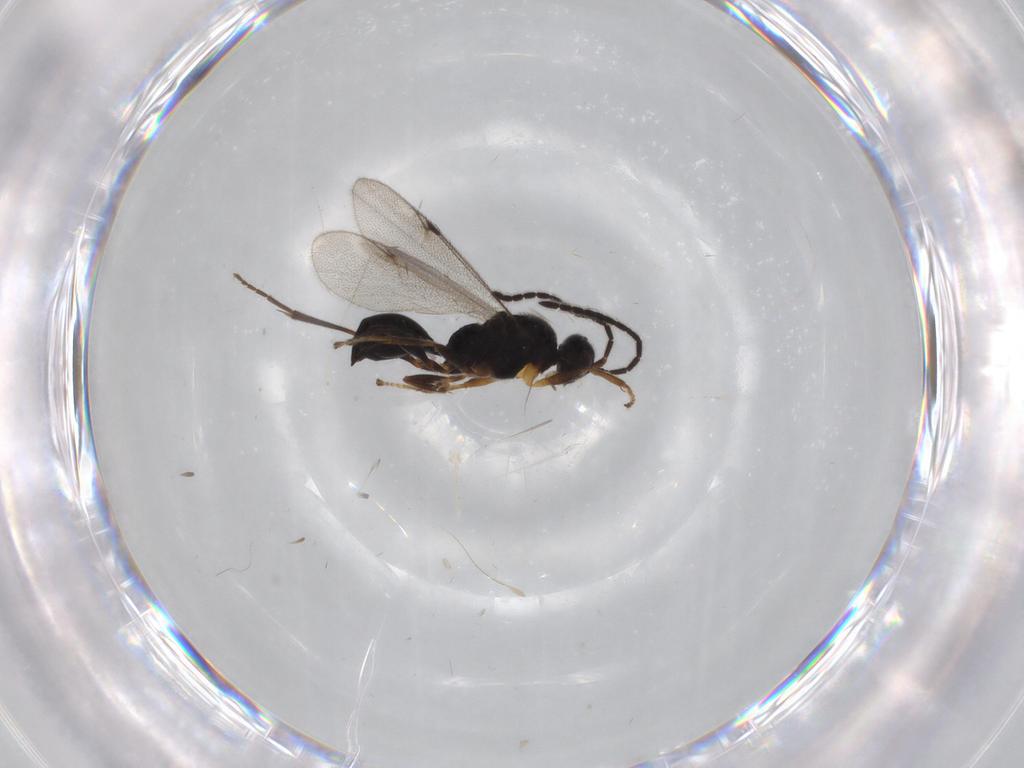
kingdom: Animalia
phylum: Arthropoda
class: Insecta
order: Hymenoptera
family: Proctotrupidae
